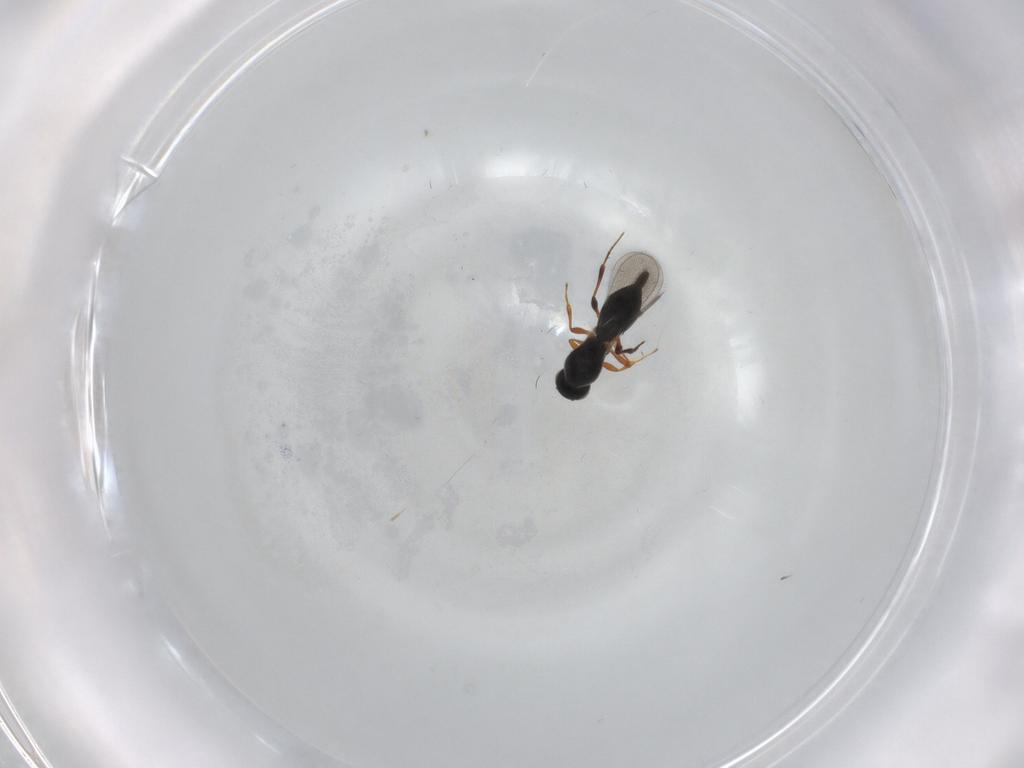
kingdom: Animalia
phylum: Arthropoda
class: Insecta
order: Hymenoptera
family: Platygastridae
